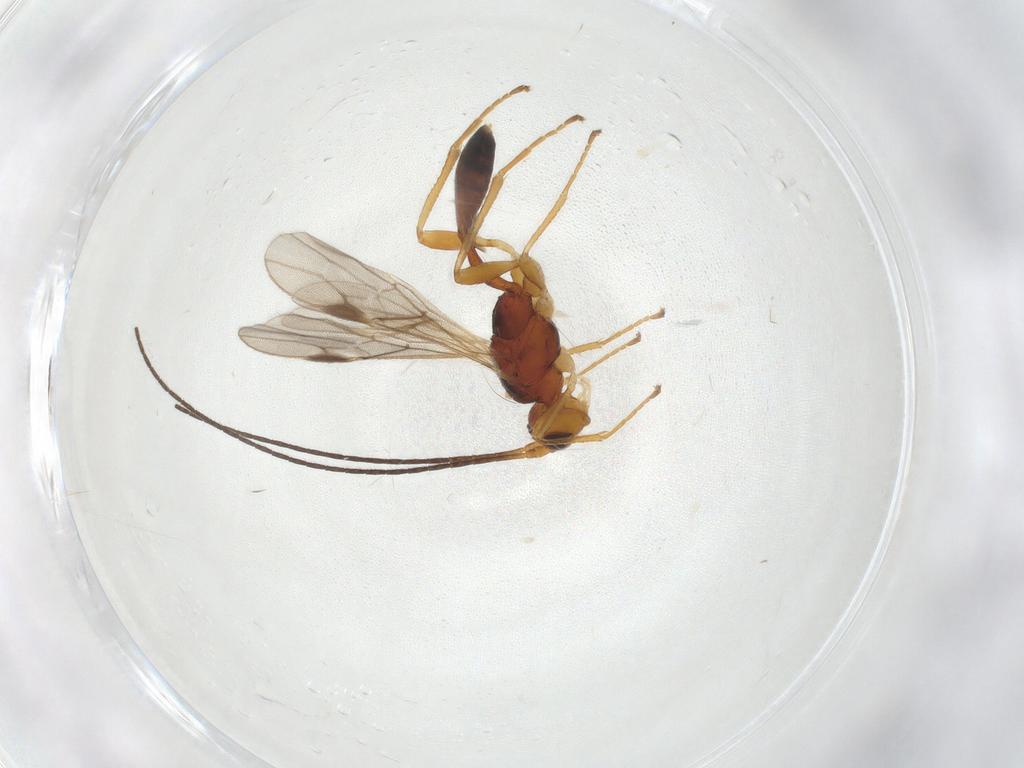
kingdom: Animalia
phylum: Arthropoda
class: Insecta
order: Hymenoptera
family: Braconidae
